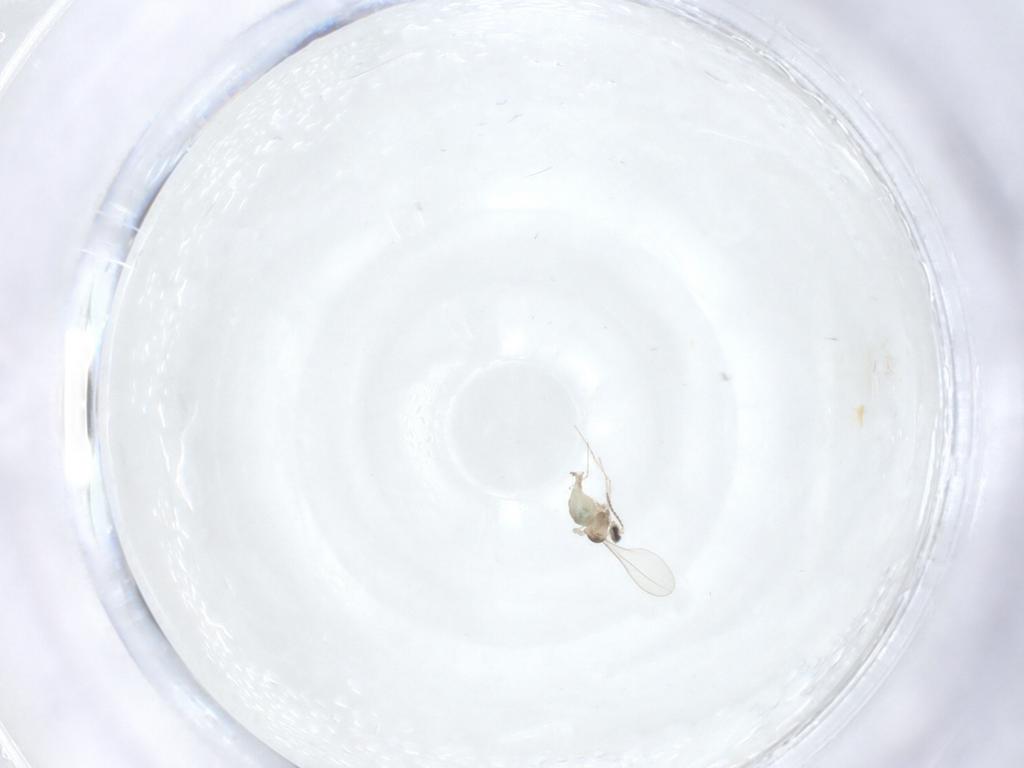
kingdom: Animalia
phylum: Arthropoda
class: Insecta
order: Diptera
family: Cecidomyiidae
